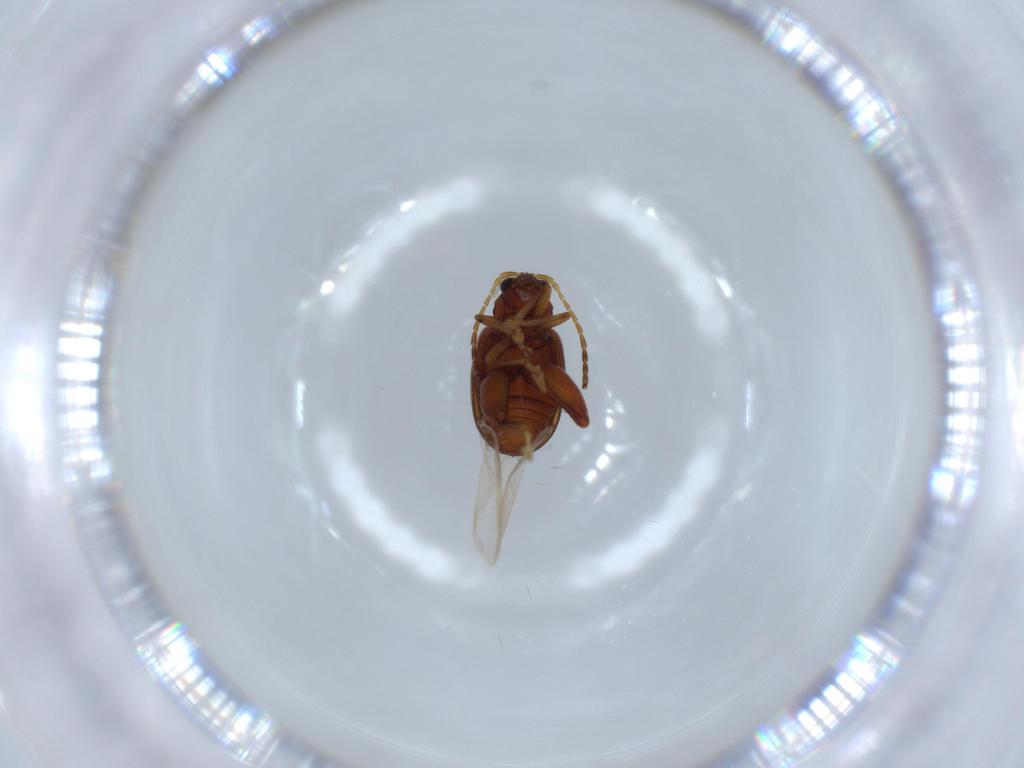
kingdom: Animalia
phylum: Arthropoda
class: Insecta
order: Coleoptera
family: Chrysomelidae
